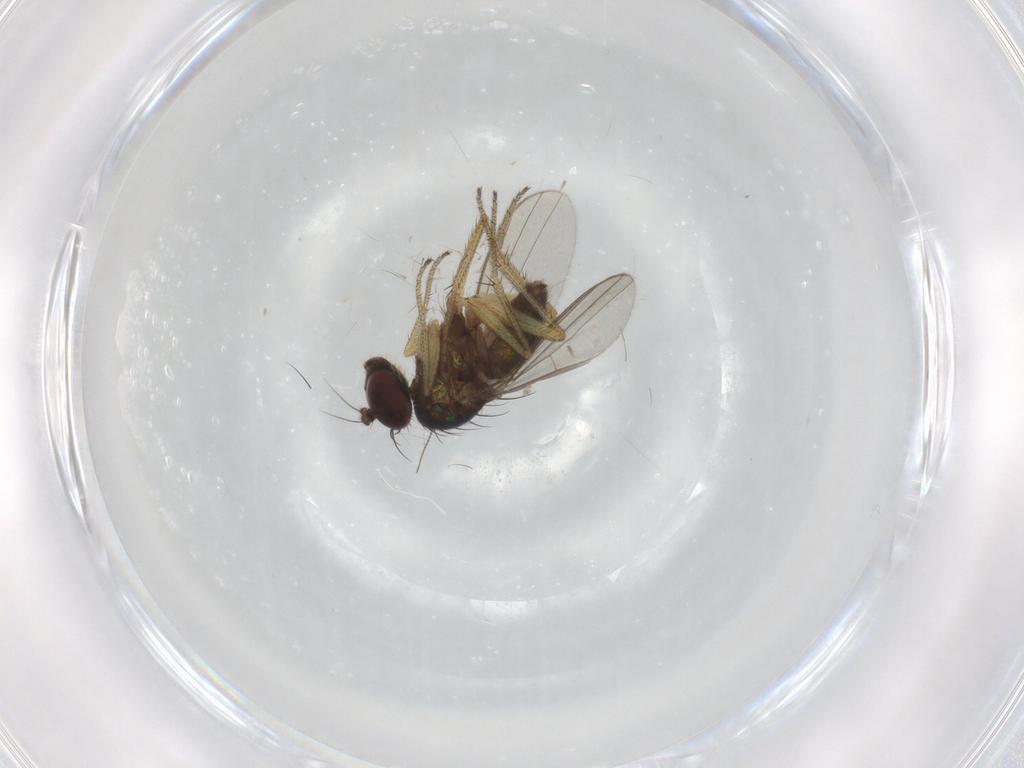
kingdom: Animalia
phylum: Arthropoda
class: Insecta
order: Diptera
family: Dolichopodidae
